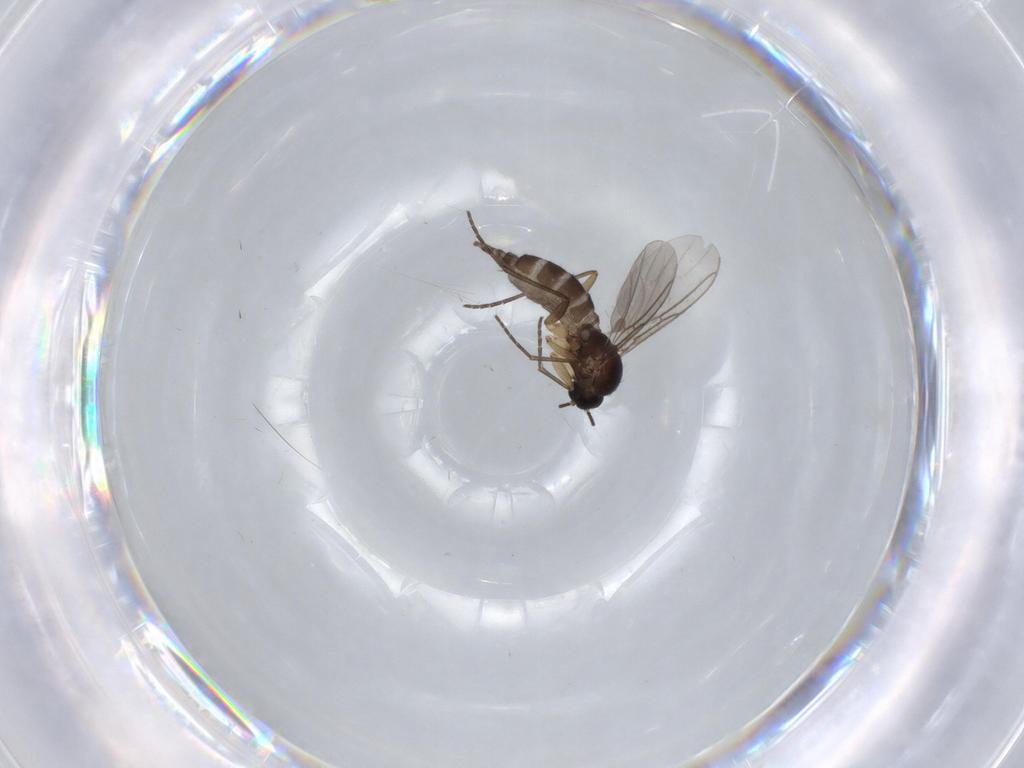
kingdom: Animalia
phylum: Arthropoda
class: Insecta
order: Diptera
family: Sciaridae
